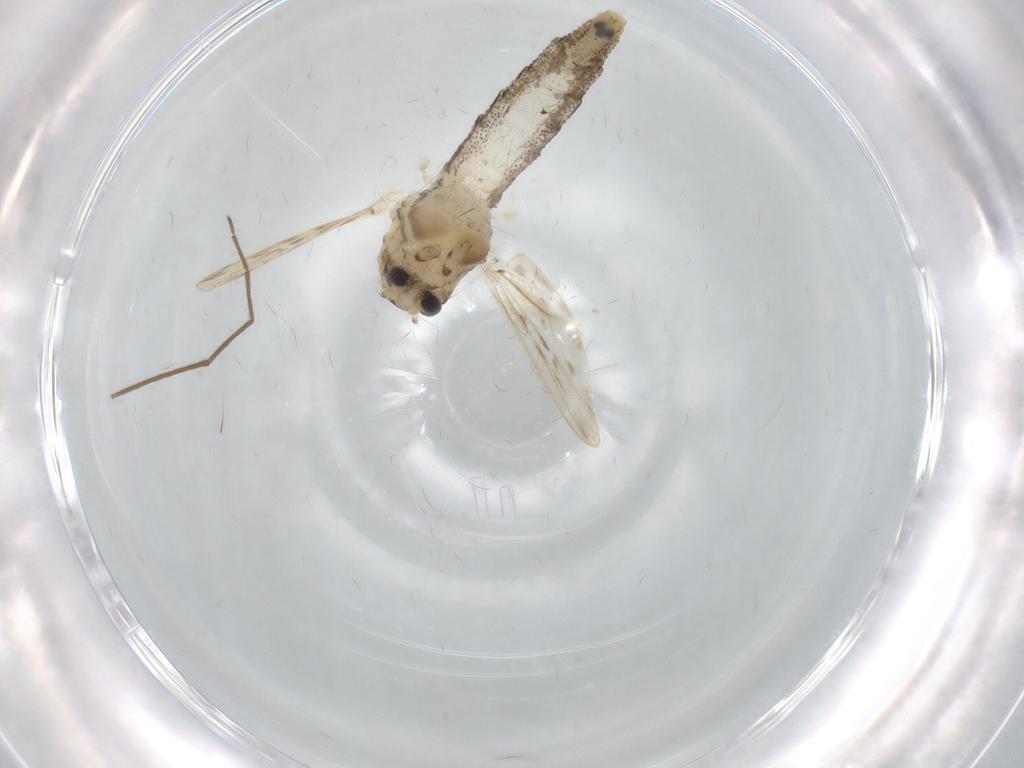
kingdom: Animalia
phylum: Arthropoda
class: Insecta
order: Diptera
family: Chaoboridae
